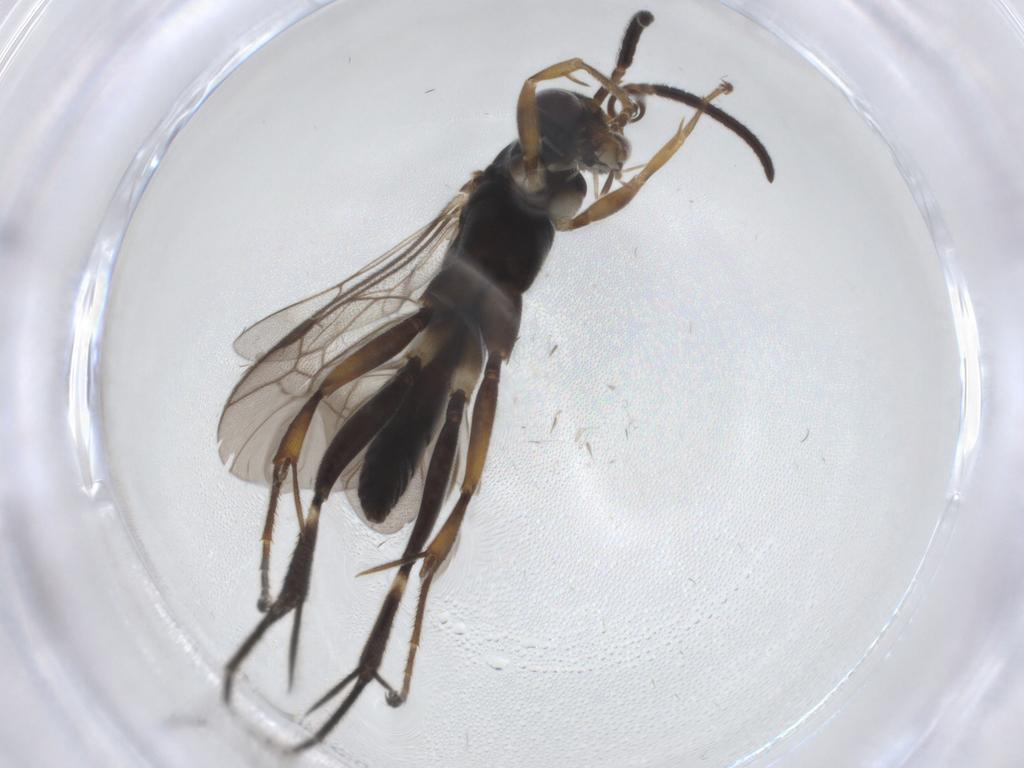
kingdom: Animalia
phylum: Arthropoda
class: Insecta
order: Hymenoptera
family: Pompilidae
